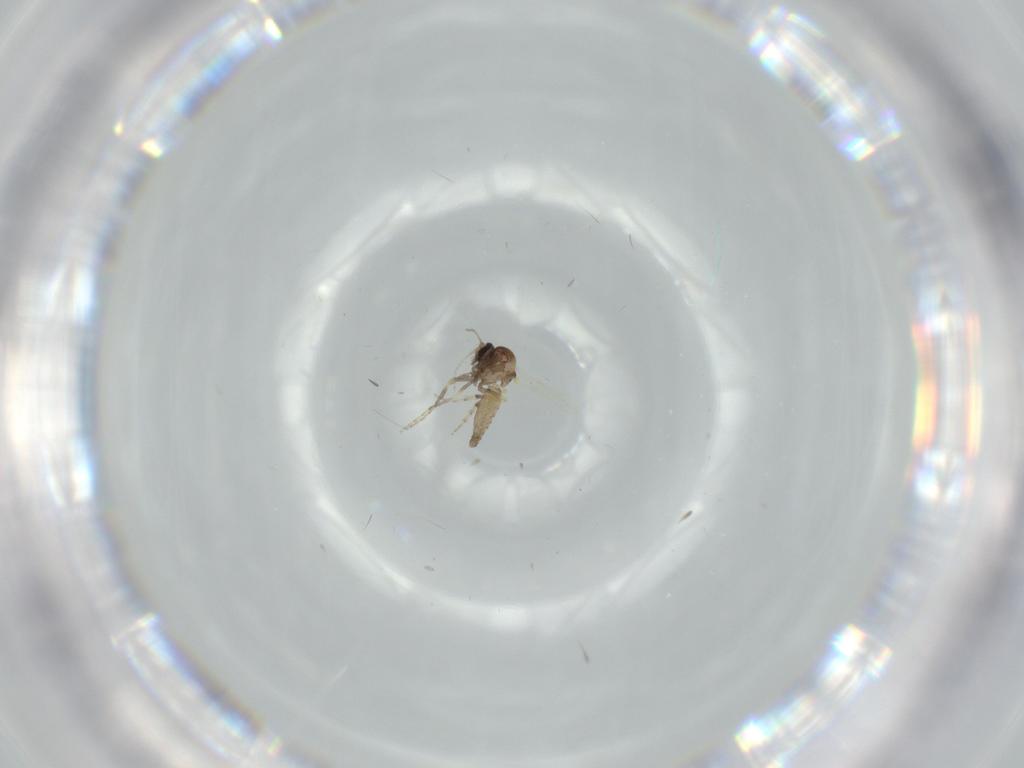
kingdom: Animalia
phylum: Arthropoda
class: Insecta
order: Diptera
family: Ceratopogonidae
